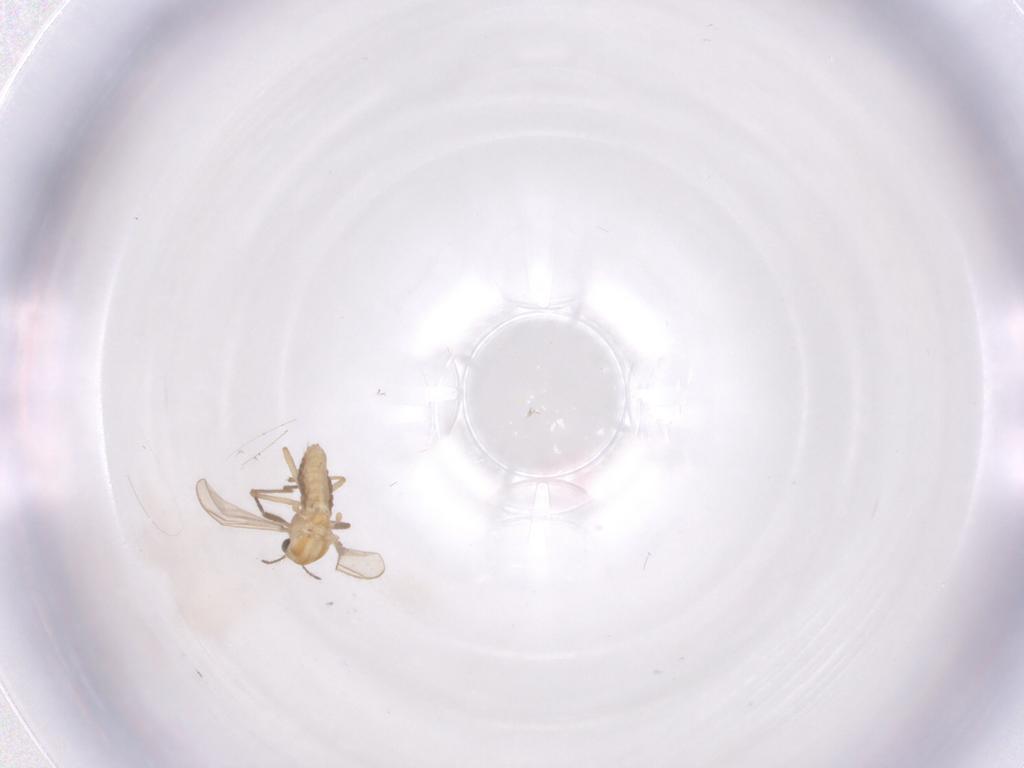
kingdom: Animalia
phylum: Arthropoda
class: Insecta
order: Diptera
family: Cecidomyiidae
